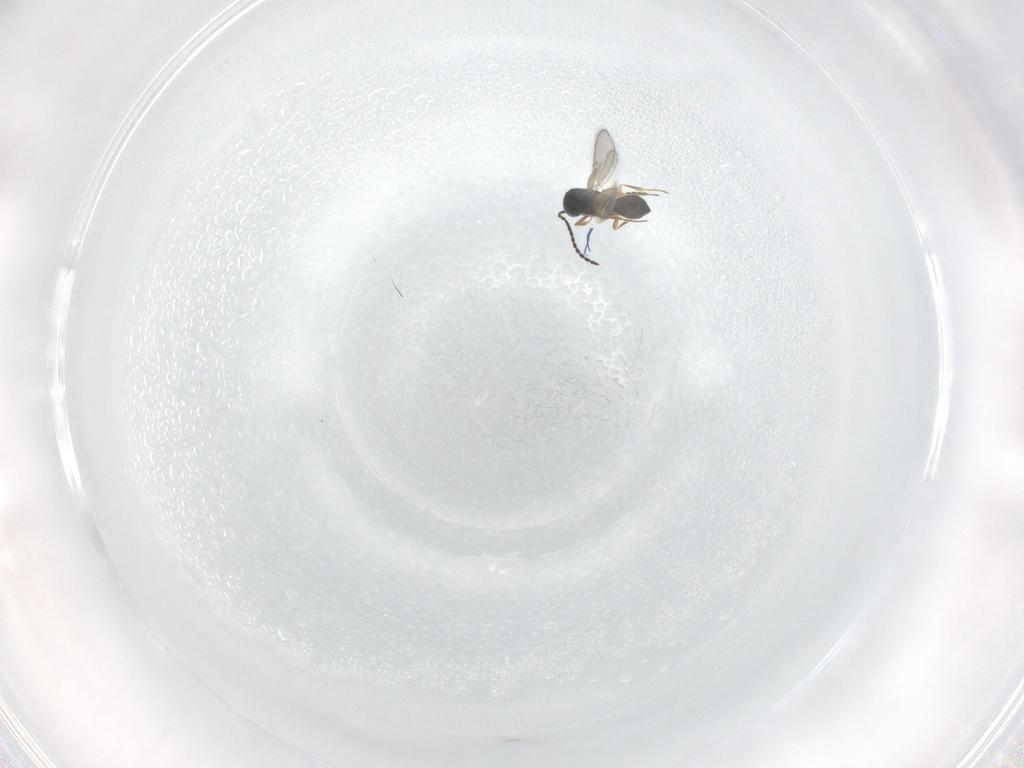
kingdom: Animalia
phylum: Arthropoda
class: Insecta
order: Hymenoptera
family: Scelionidae
